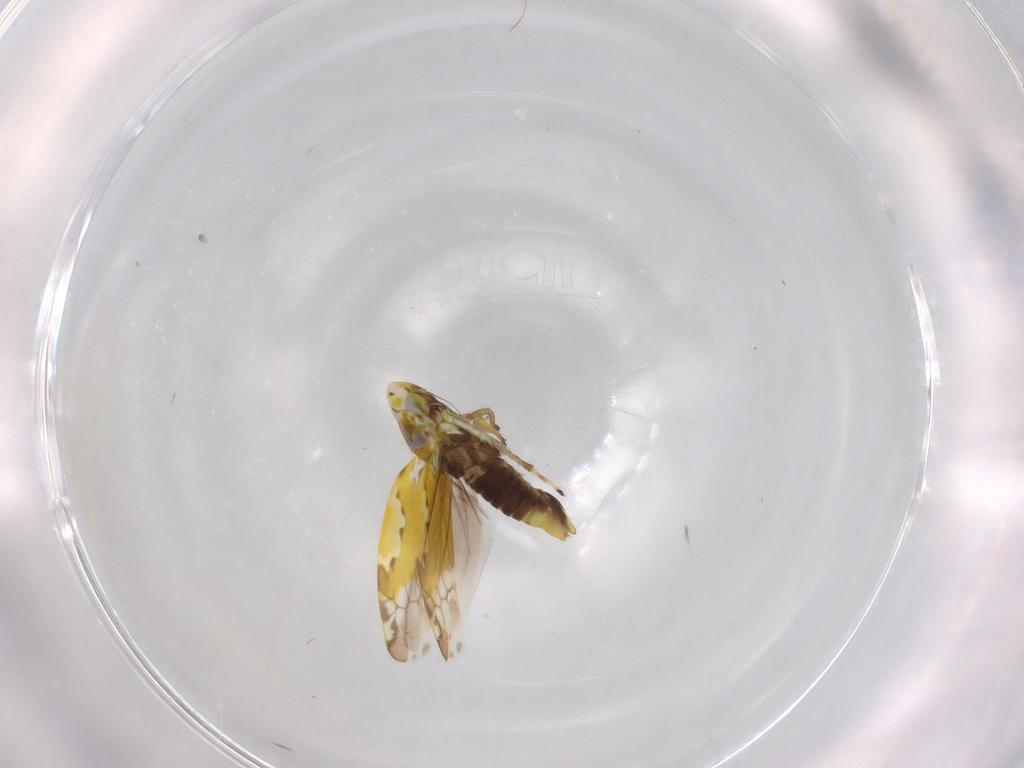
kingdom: Animalia
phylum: Arthropoda
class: Insecta
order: Hemiptera
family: Cicadellidae
